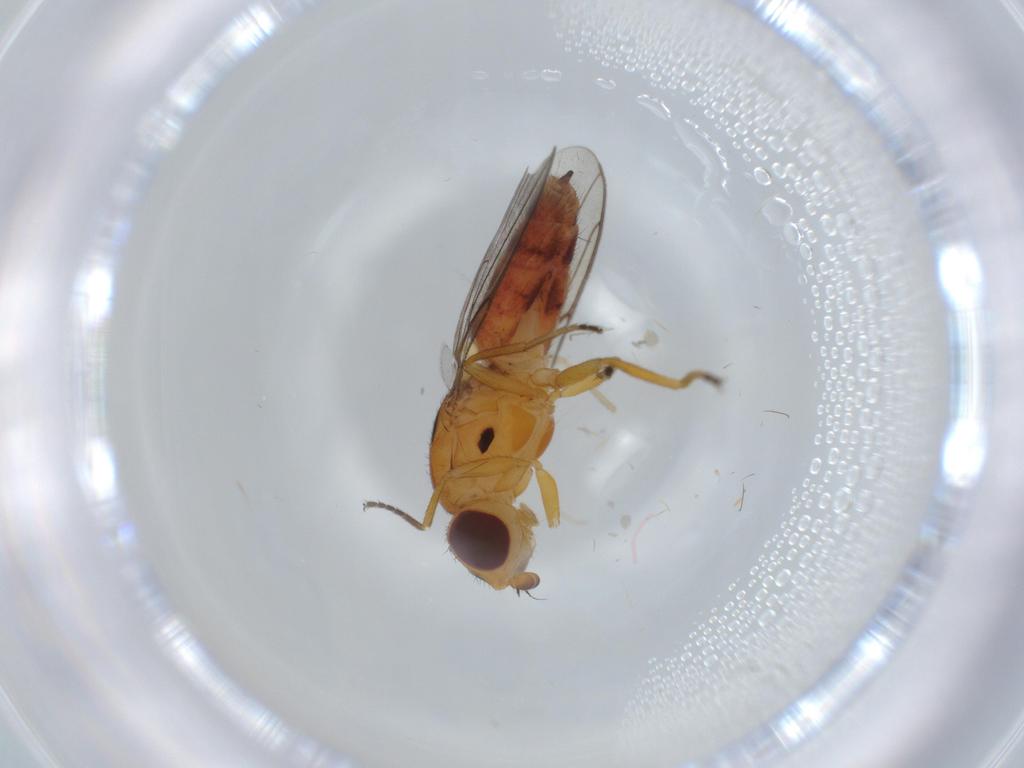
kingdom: Animalia
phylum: Arthropoda
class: Insecta
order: Diptera
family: Chloropidae
